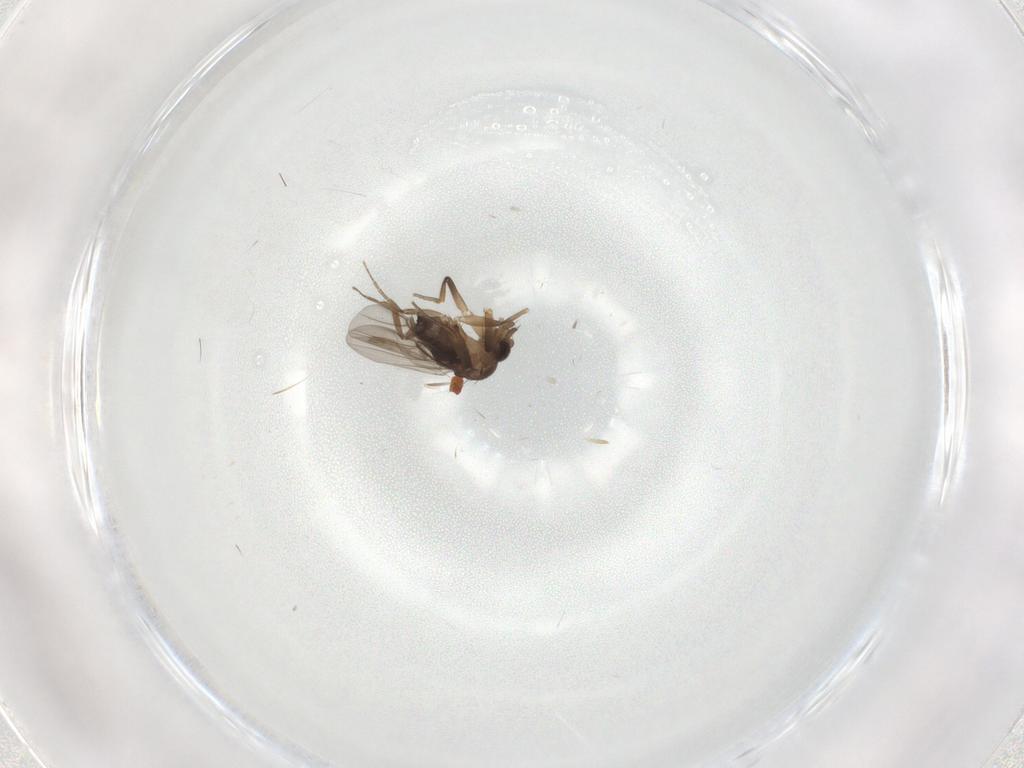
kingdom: Animalia
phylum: Arthropoda
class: Insecta
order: Diptera
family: Phoridae
